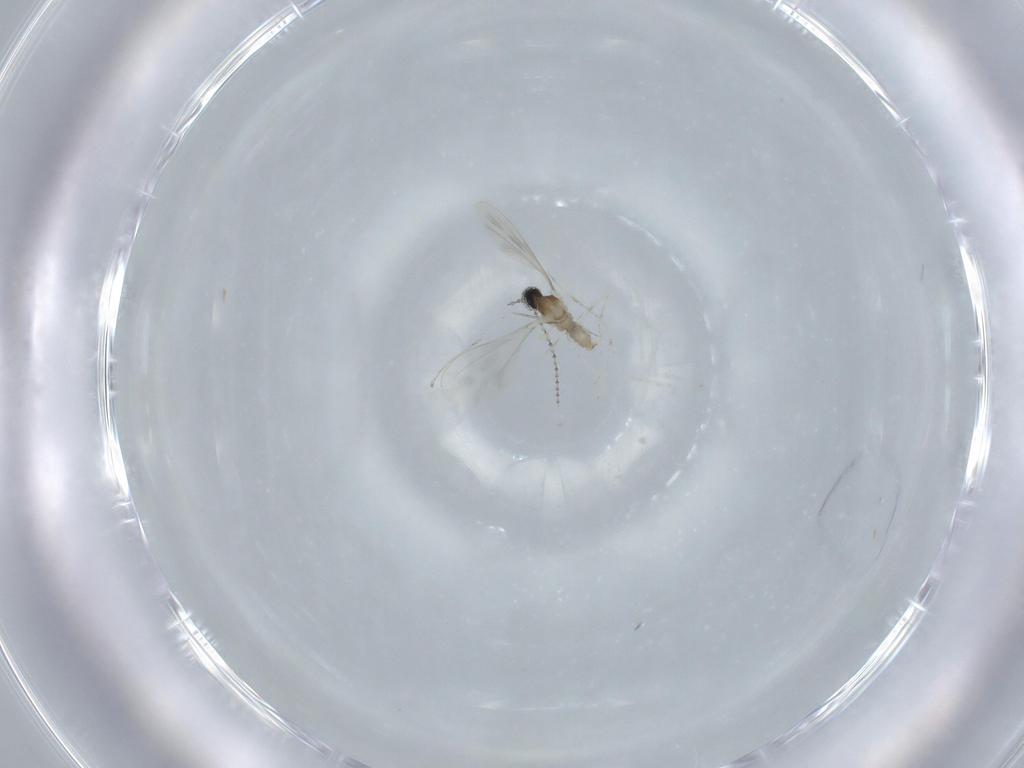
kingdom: Animalia
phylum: Arthropoda
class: Insecta
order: Diptera
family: Cecidomyiidae
